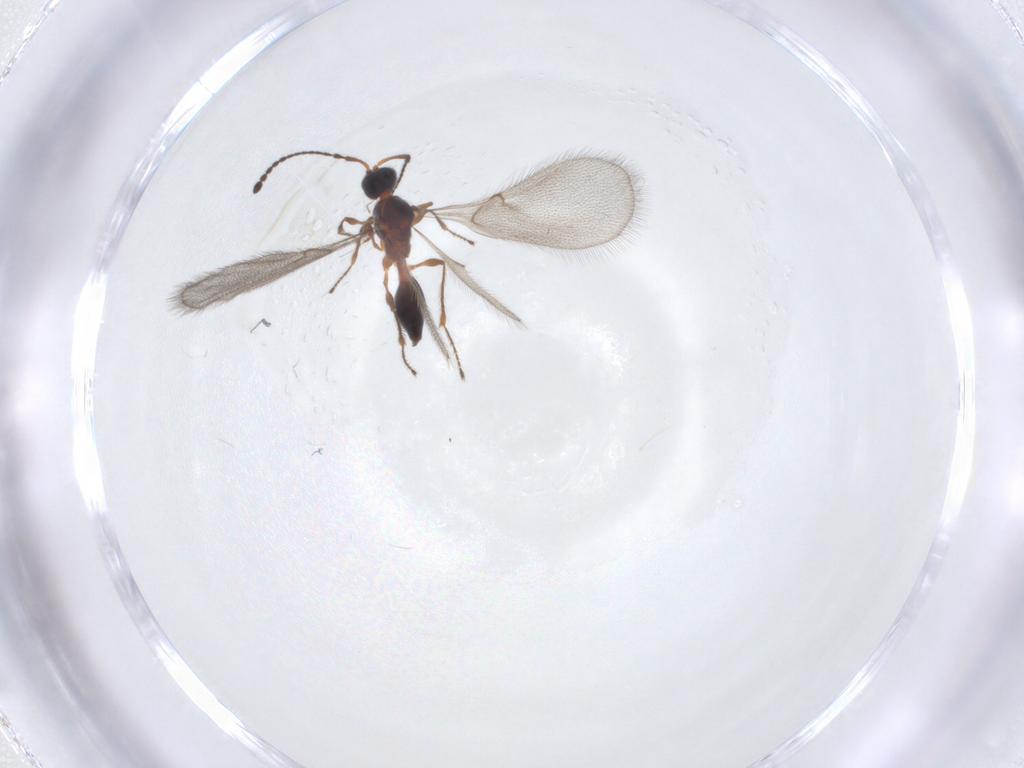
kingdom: Animalia
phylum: Arthropoda
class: Insecta
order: Hymenoptera
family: Diapriidae
